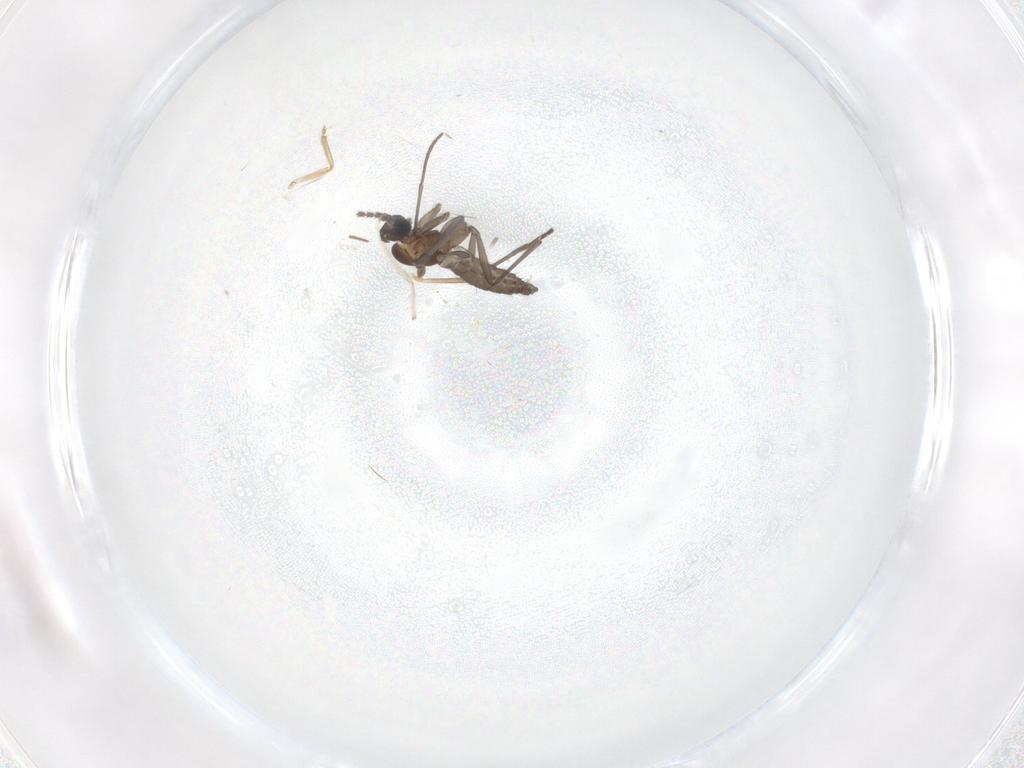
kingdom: Animalia
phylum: Arthropoda
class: Insecta
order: Diptera
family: Chironomidae
